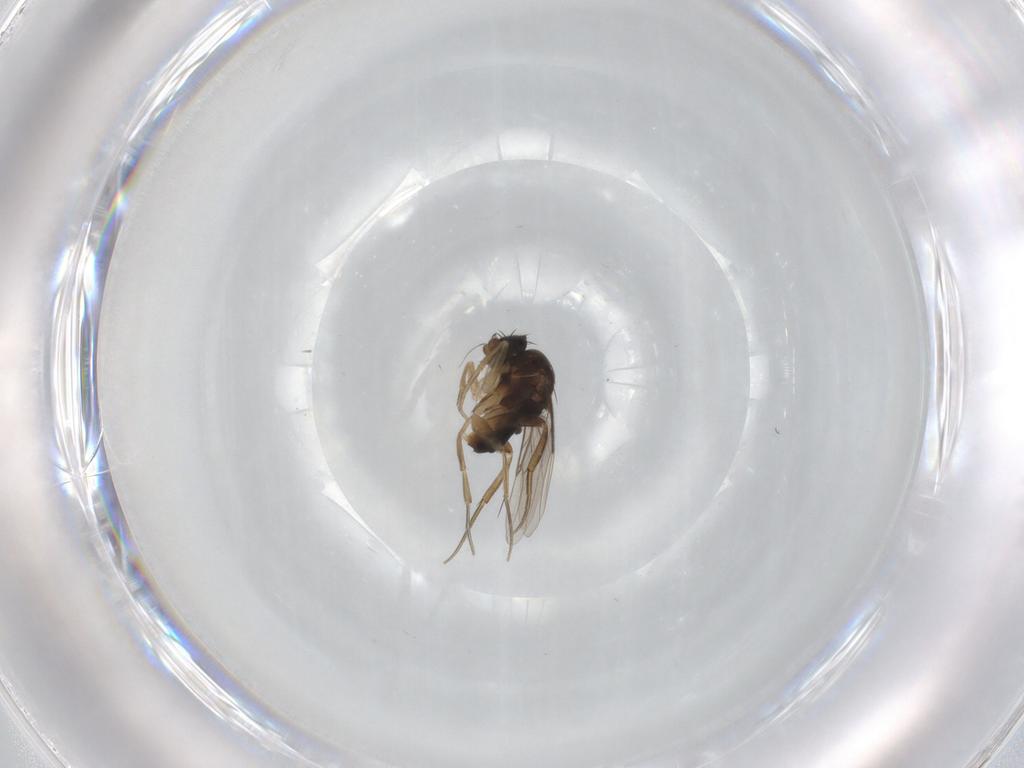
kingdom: Animalia
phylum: Arthropoda
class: Insecta
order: Diptera
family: Phoridae
